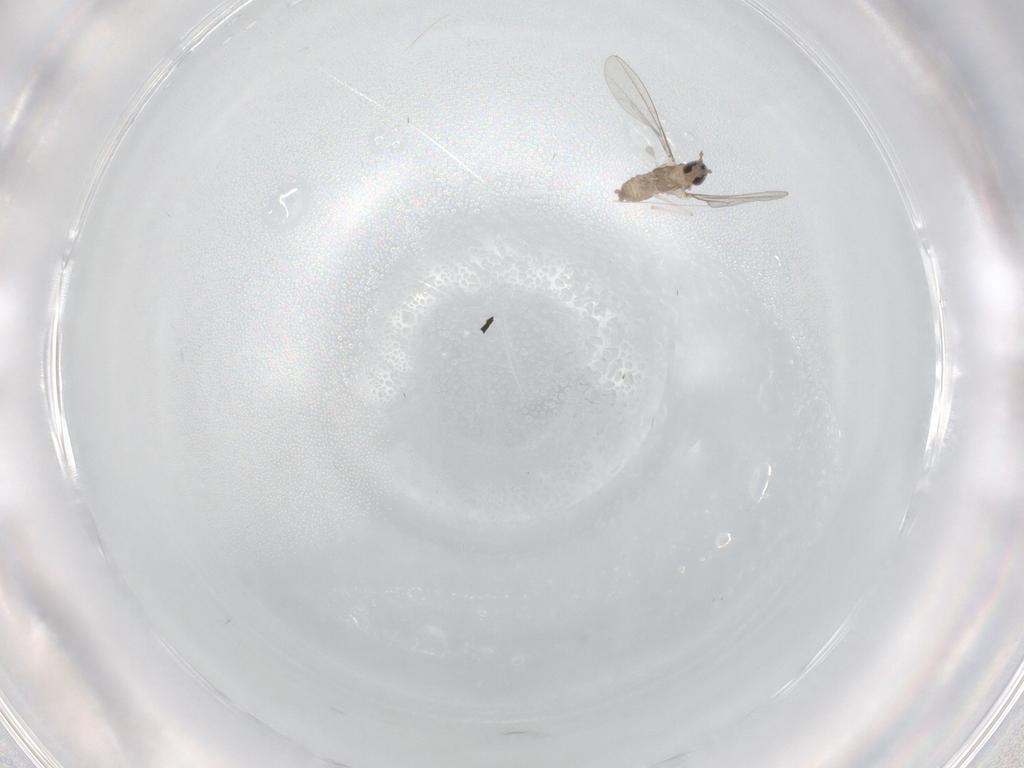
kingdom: Animalia
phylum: Arthropoda
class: Insecta
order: Diptera
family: Cecidomyiidae
